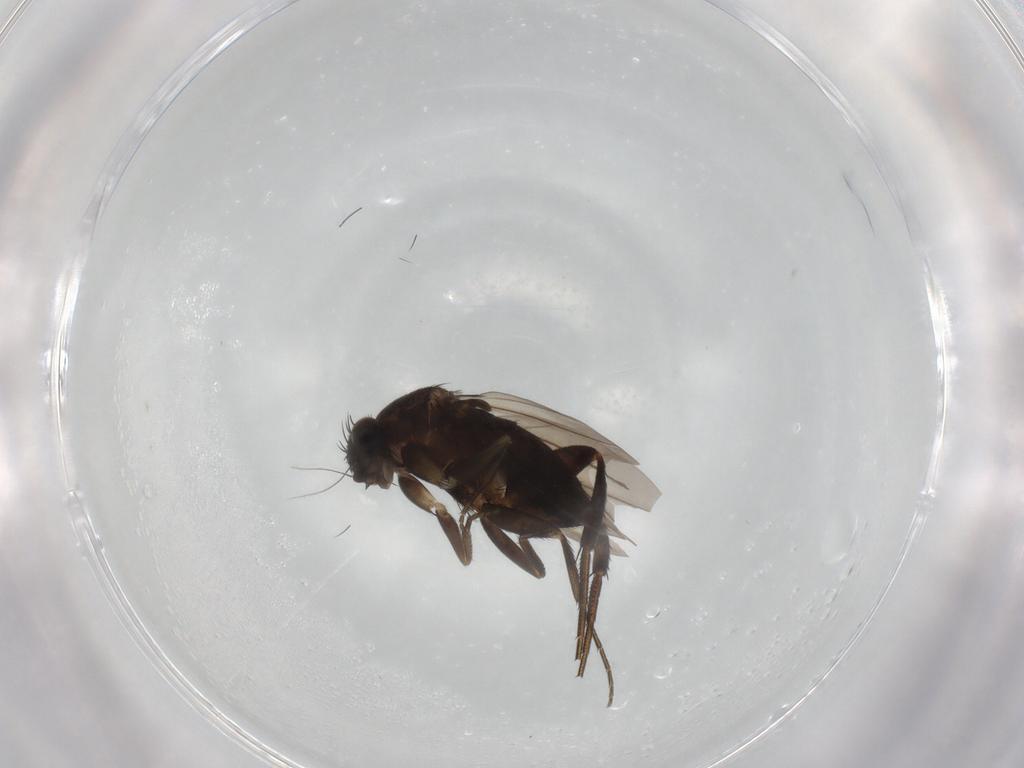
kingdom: Animalia
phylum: Arthropoda
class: Insecta
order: Diptera
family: Phoridae
